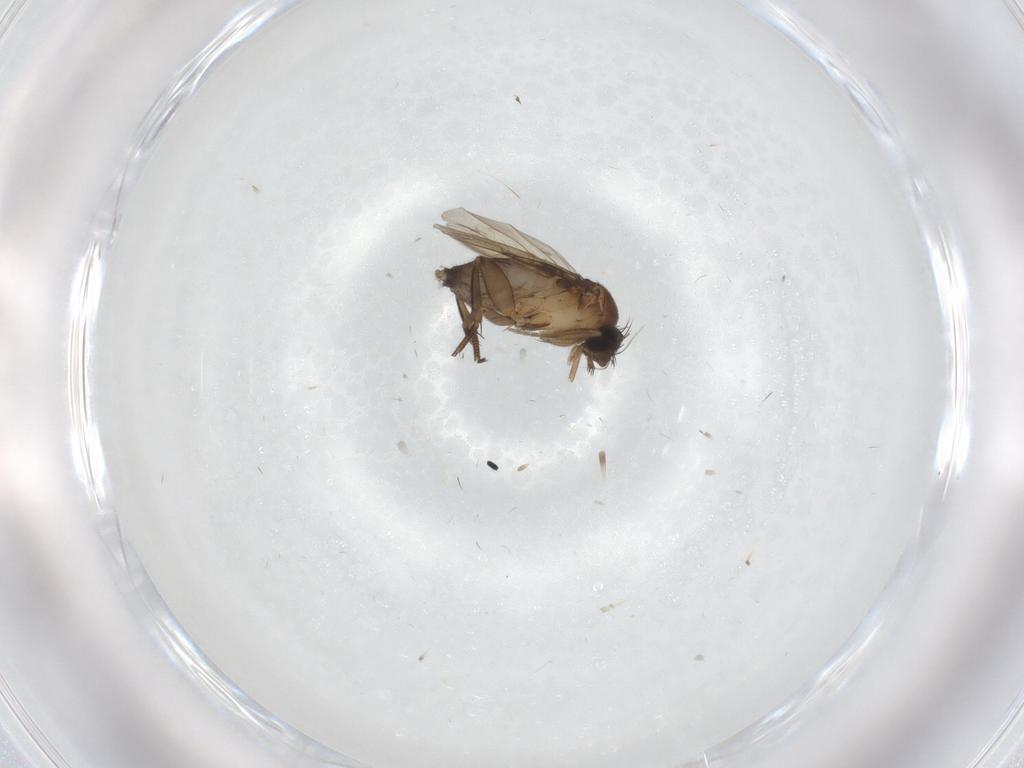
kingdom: Animalia
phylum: Arthropoda
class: Insecta
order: Diptera
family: Phoridae
